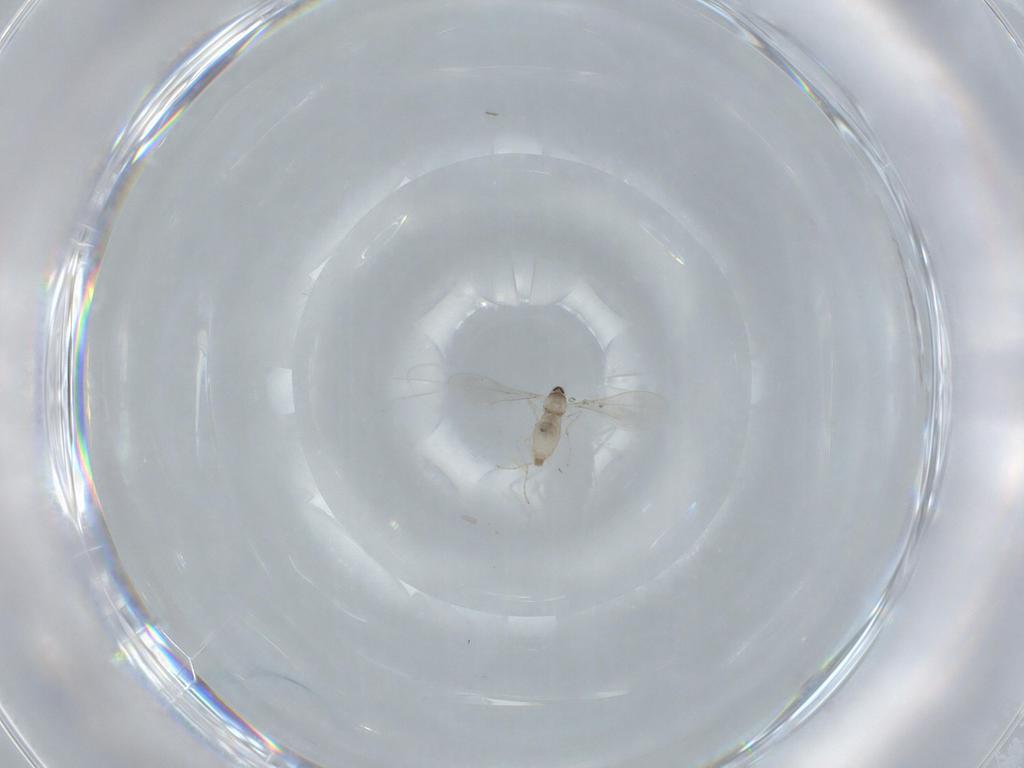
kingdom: Animalia
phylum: Arthropoda
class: Insecta
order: Diptera
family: Cecidomyiidae
